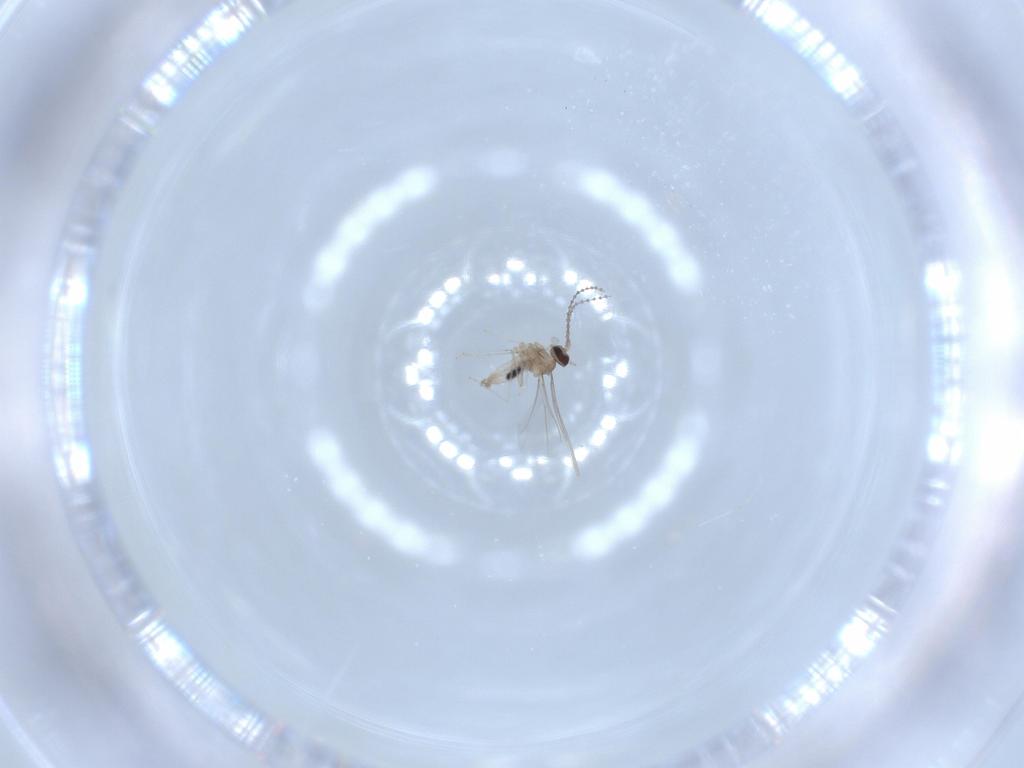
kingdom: Animalia
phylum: Arthropoda
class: Insecta
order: Diptera
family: Cecidomyiidae
